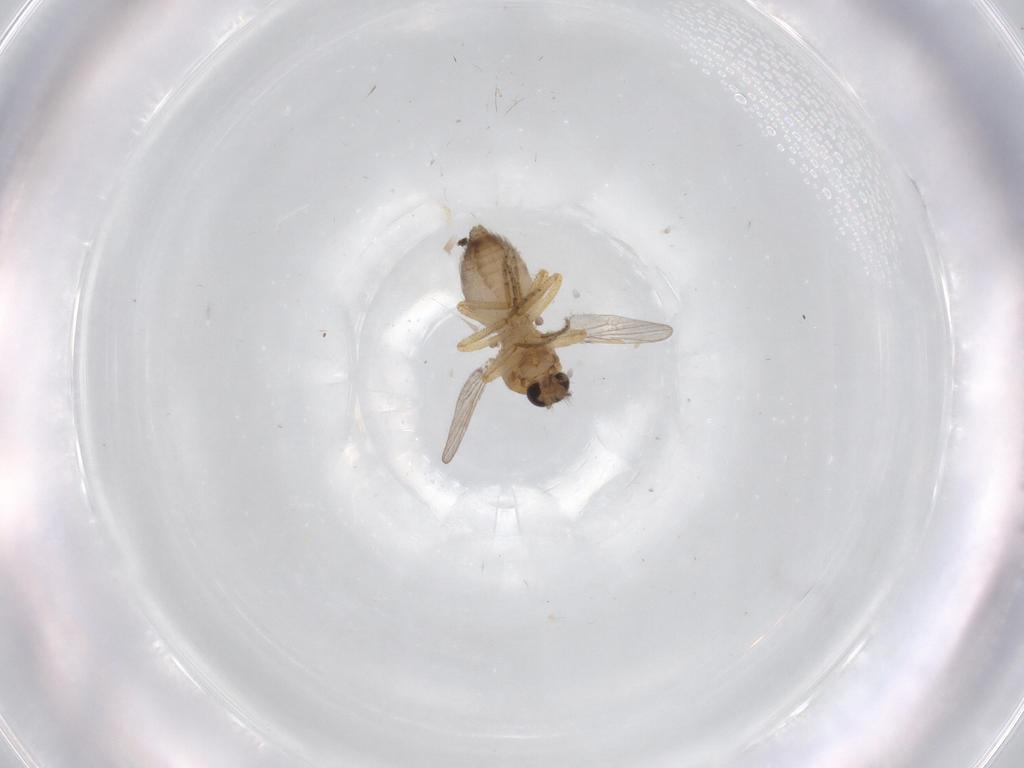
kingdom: Animalia
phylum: Arthropoda
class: Insecta
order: Diptera
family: Ceratopogonidae
